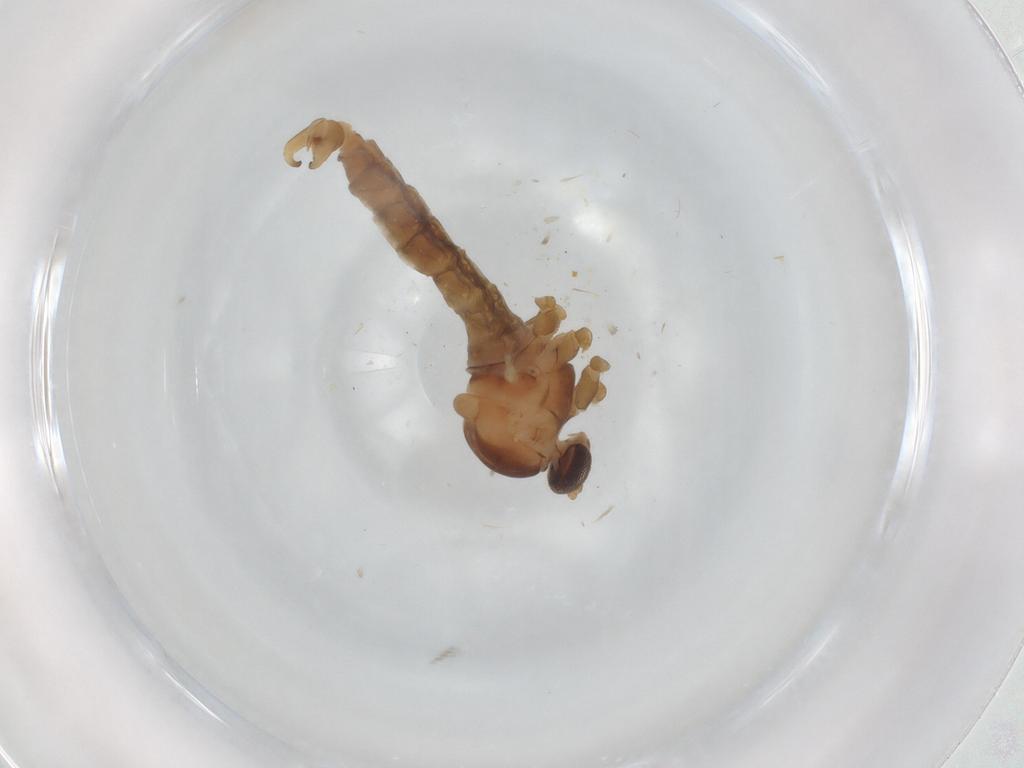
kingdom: Animalia
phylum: Arthropoda
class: Insecta
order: Diptera
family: Cecidomyiidae
